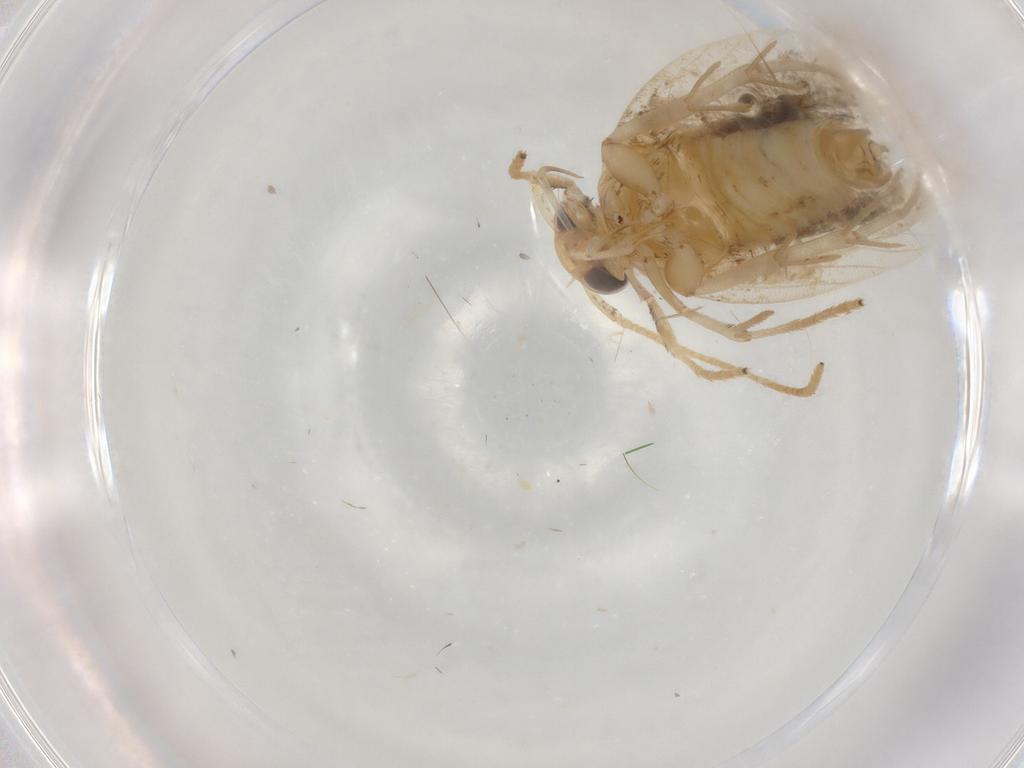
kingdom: Animalia
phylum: Arthropoda
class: Insecta
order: Lepidoptera
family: Lecithoceridae
